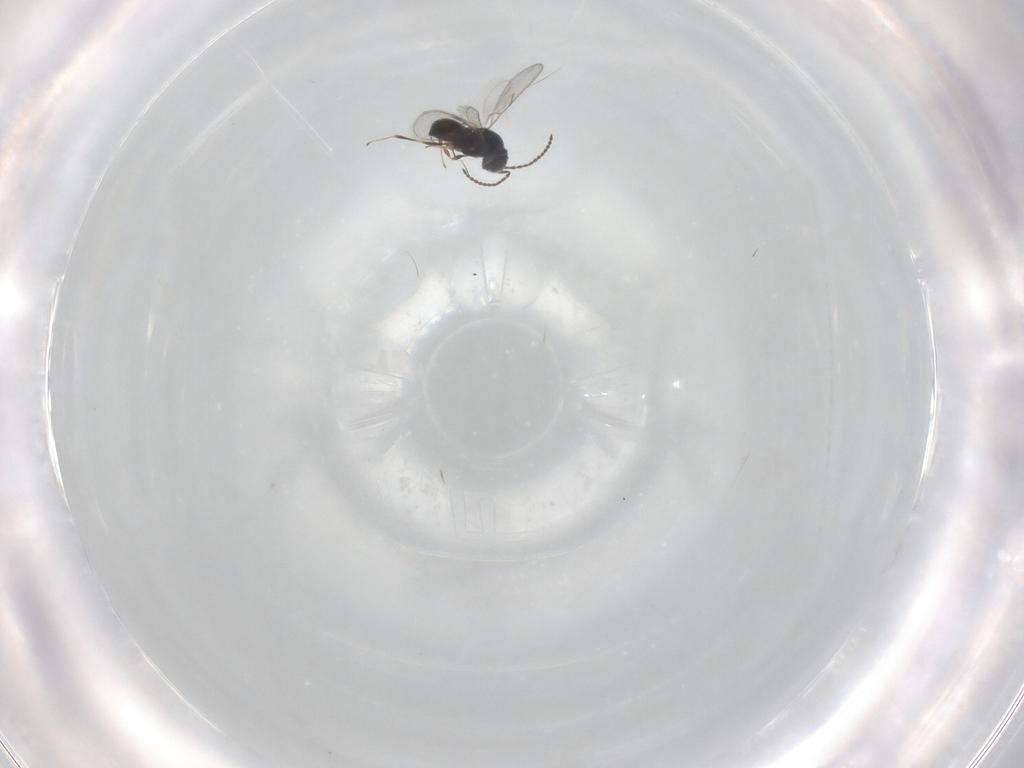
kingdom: Animalia
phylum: Arthropoda
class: Insecta
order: Hymenoptera
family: Scelionidae
